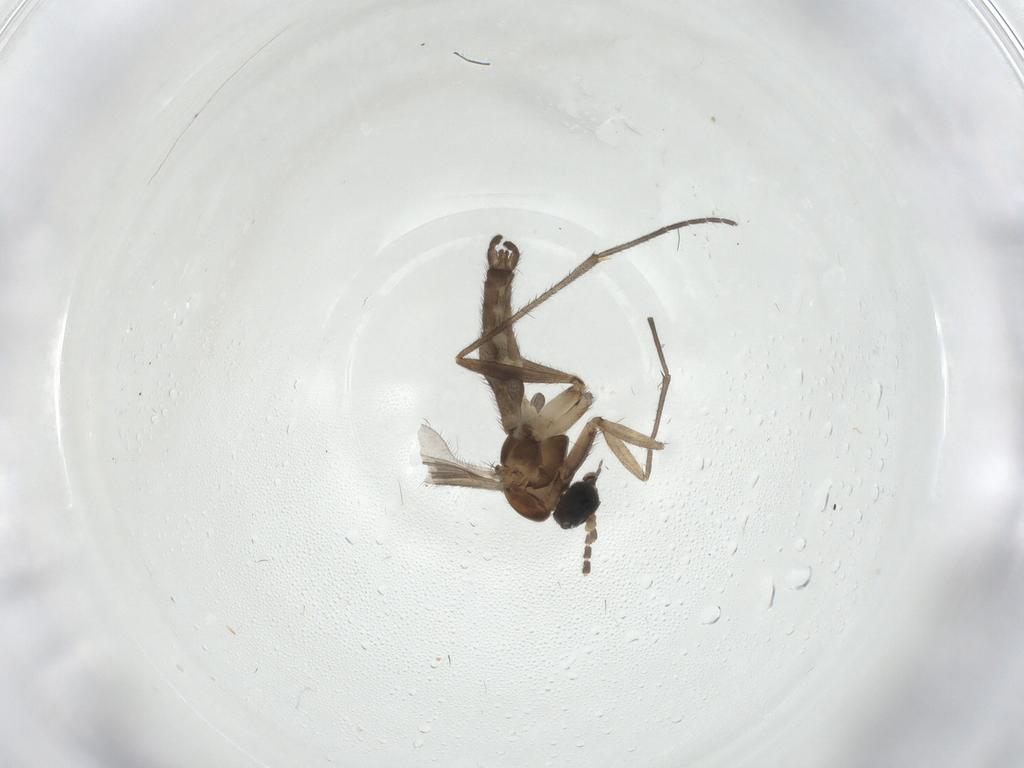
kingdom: Animalia
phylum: Arthropoda
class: Insecta
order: Diptera
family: Sciaridae
